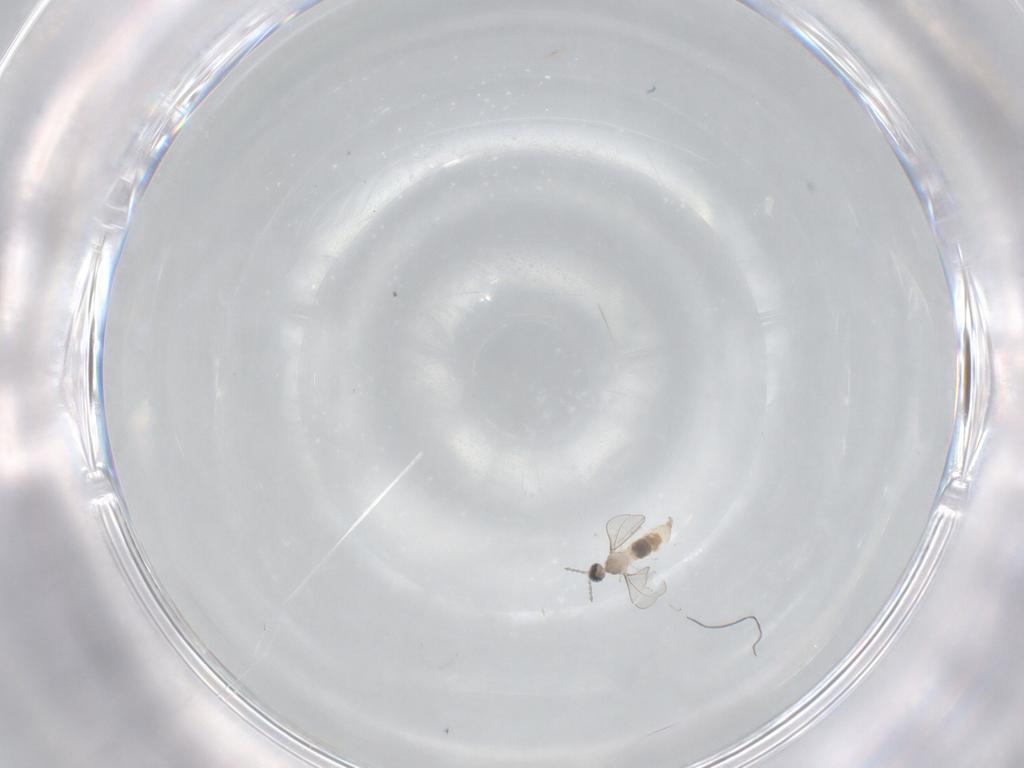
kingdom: Animalia
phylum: Arthropoda
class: Insecta
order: Diptera
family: Cecidomyiidae
